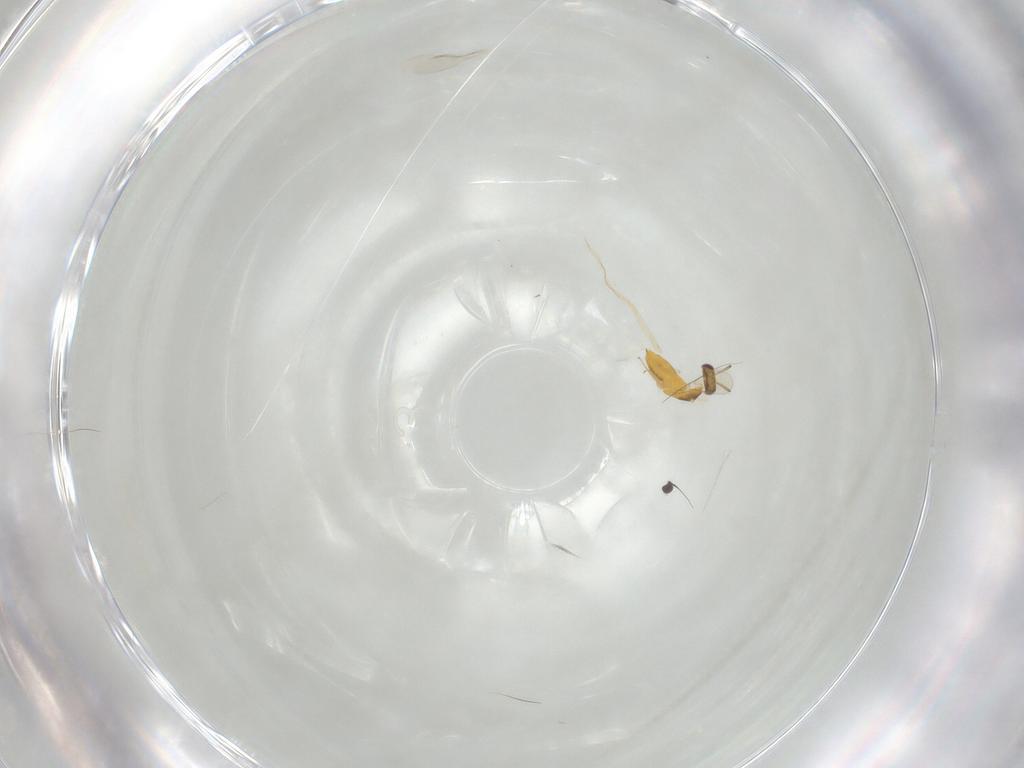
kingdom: Animalia
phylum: Arthropoda
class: Insecta
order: Hymenoptera
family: Aphelinidae
